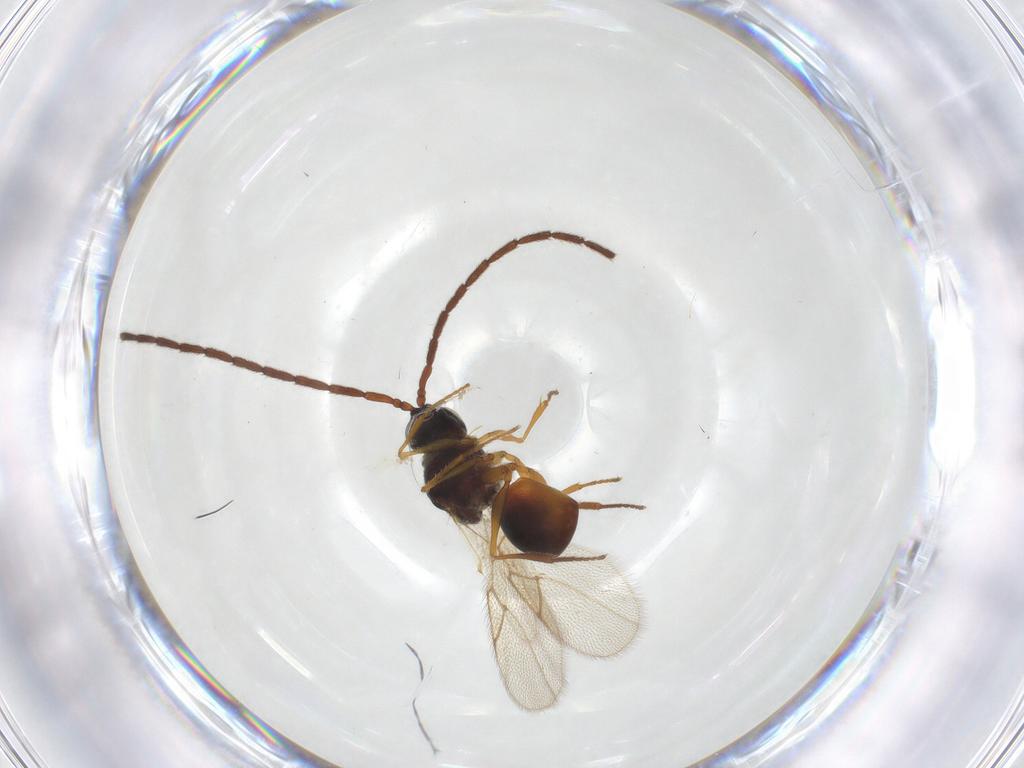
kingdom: Animalia
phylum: Arthropoda
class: Insecta
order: Hymenoptera
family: Figitidae
